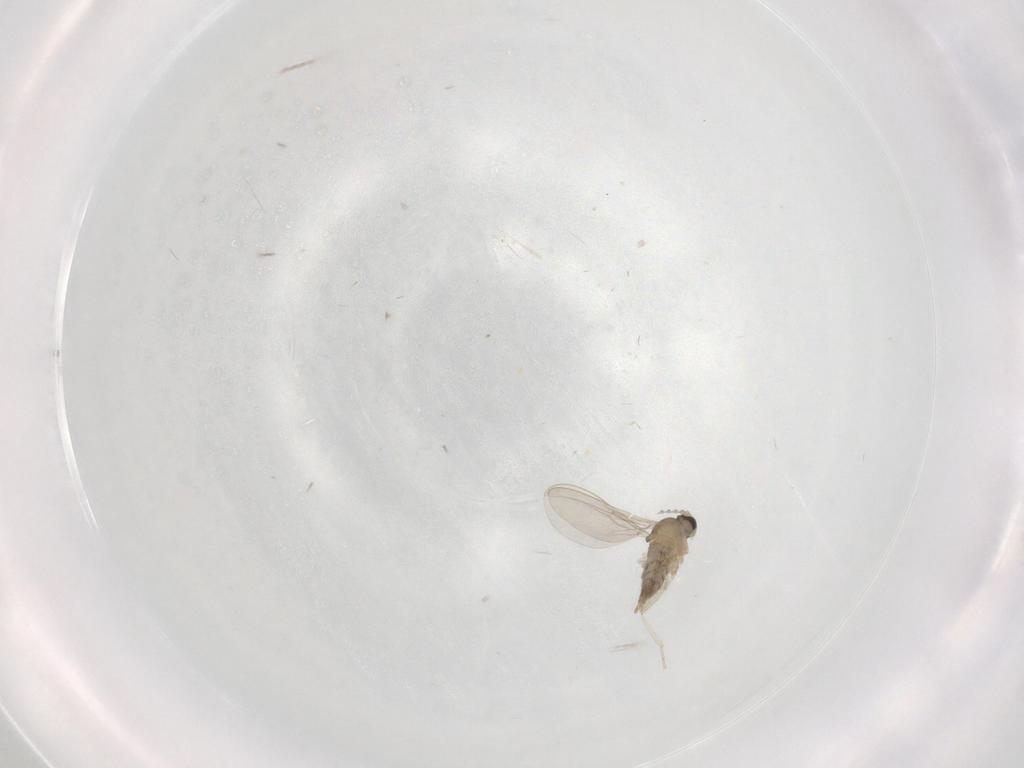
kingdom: Animalia
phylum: Arthropoda
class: Insecta
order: Diptera
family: Cecidomyiidae
